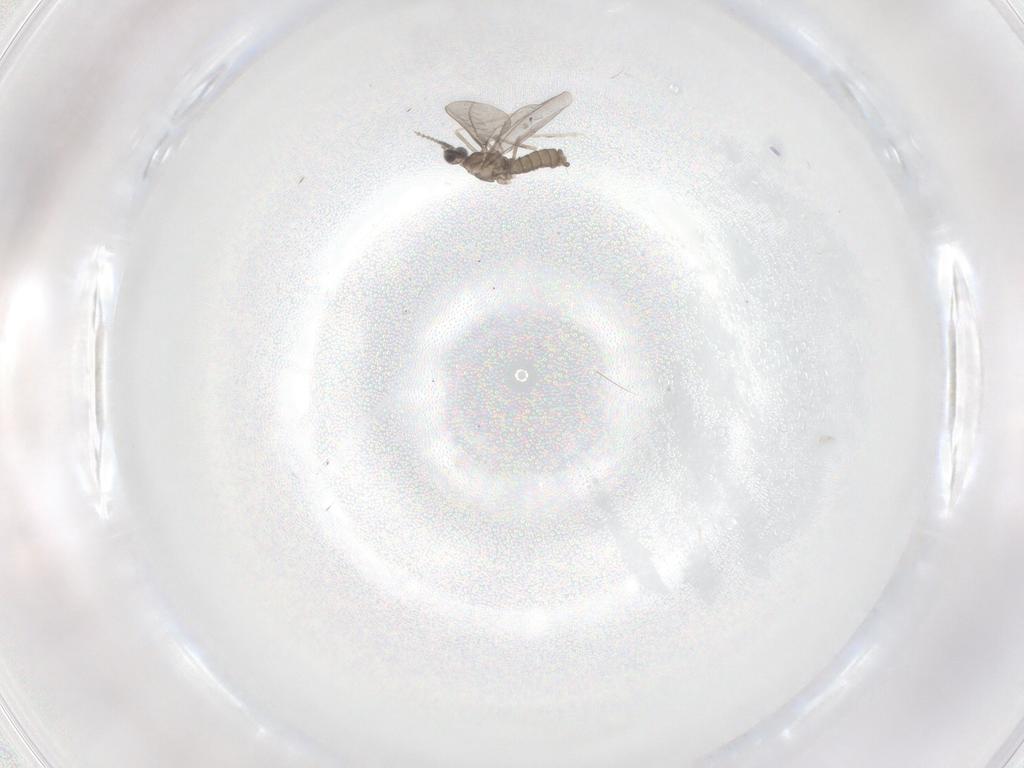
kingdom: Animalia
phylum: Arthropoda
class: Insecta
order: Diptera
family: Cecidomyiidae
